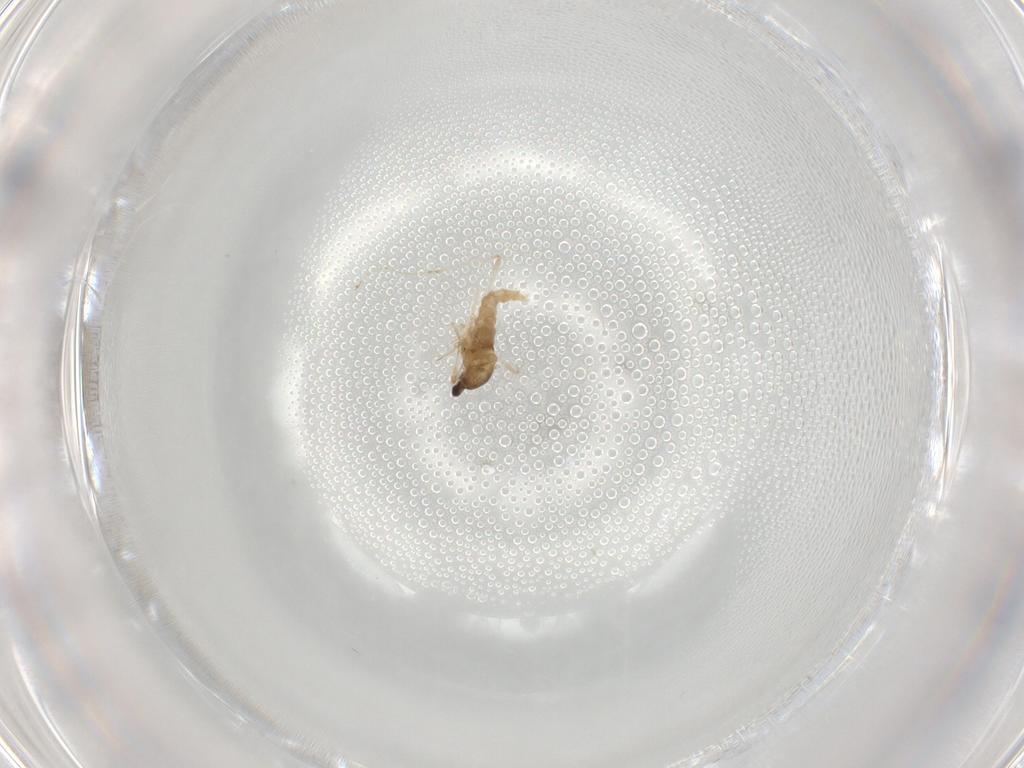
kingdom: Animalia
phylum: Arthropoda
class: Insecta
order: Diptera
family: Cecidomyiidae
